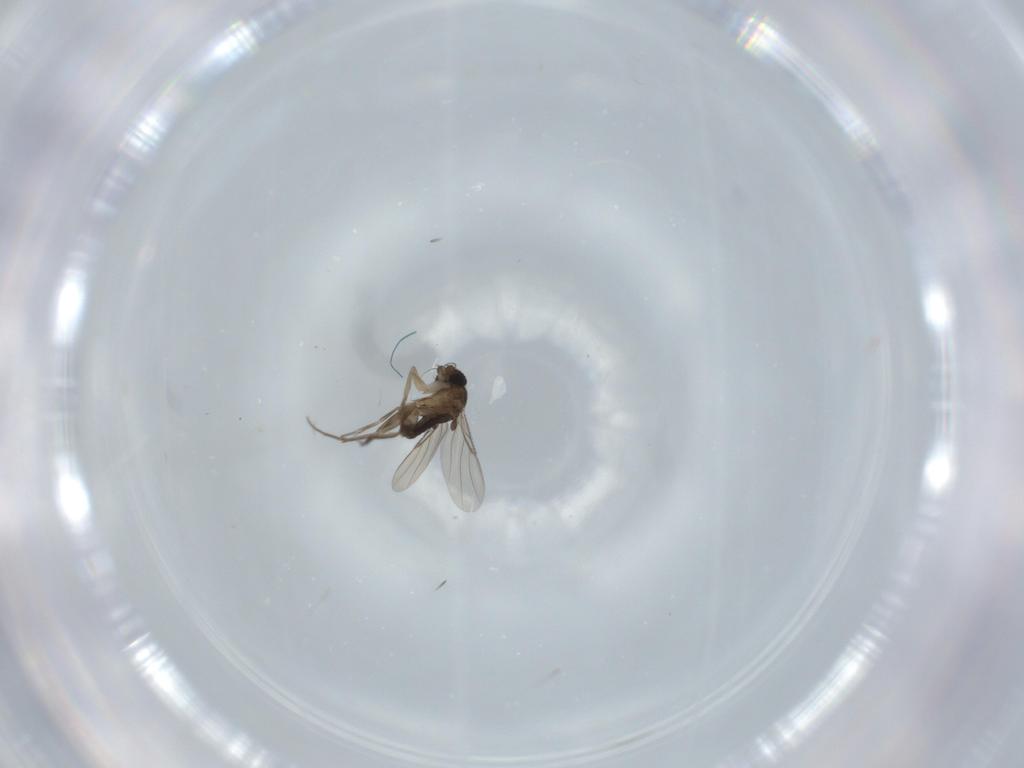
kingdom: Animalia
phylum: Arthropoda
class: Insecta
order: Diptera
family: Phoridae
